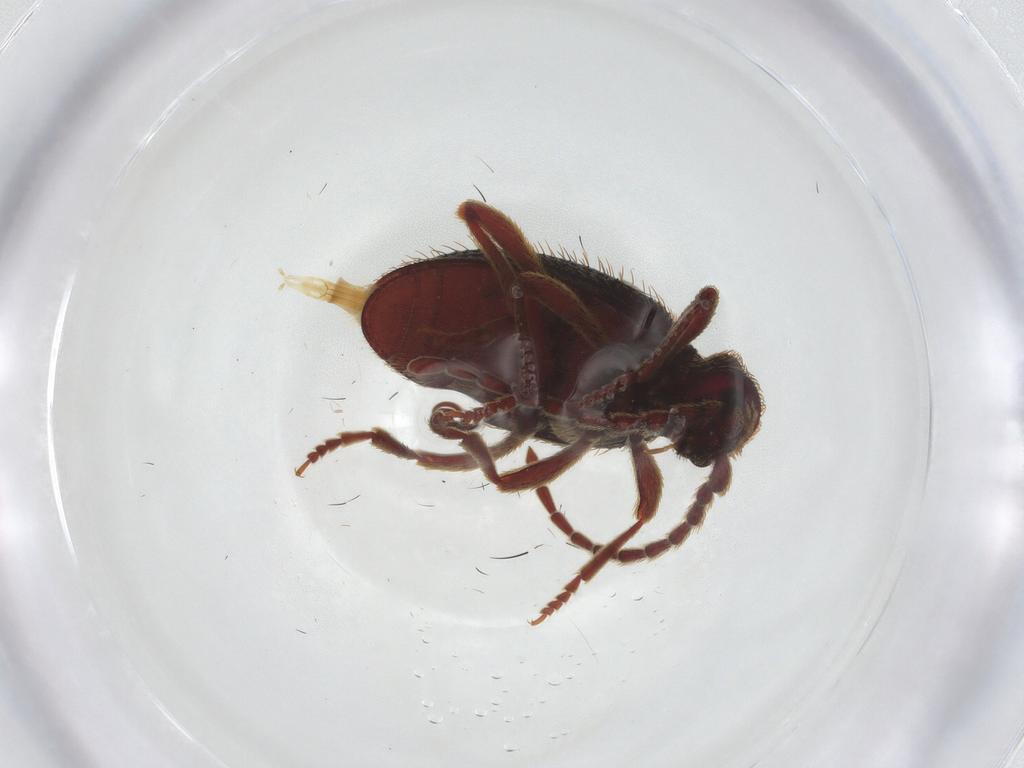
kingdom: Animalia
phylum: Arthropoda
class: Insecta
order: Coleoptera
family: Ptinidae
